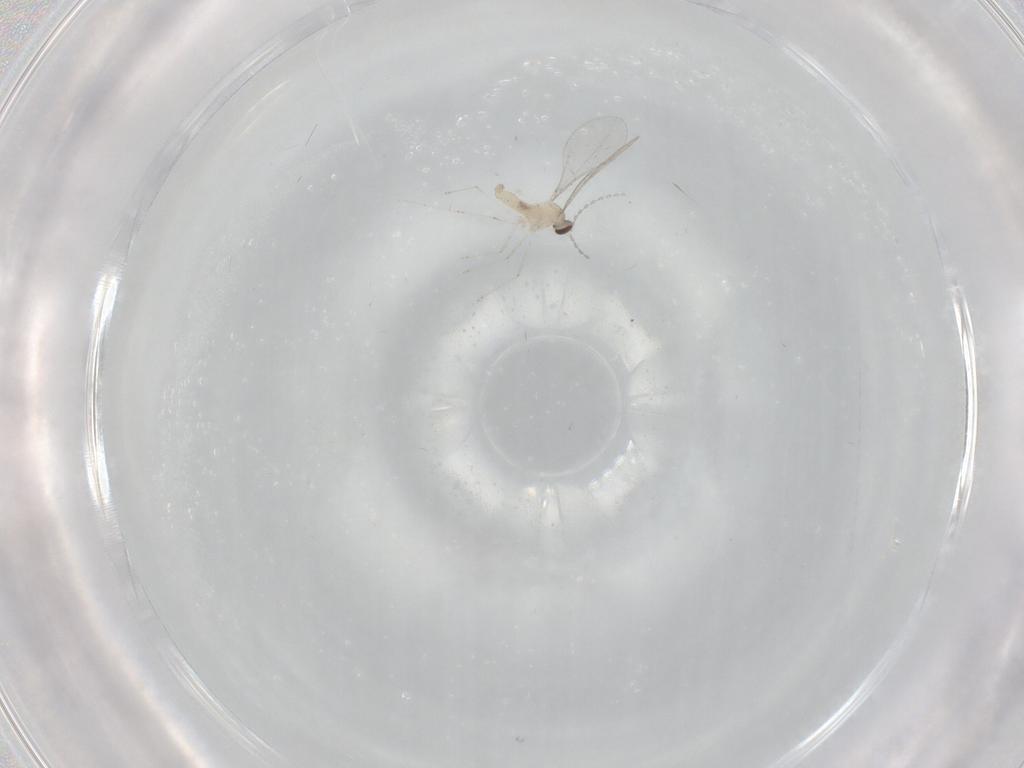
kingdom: Animalia
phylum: Arthropoda
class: Insecta
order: Diptera
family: Cecidomyiidae
